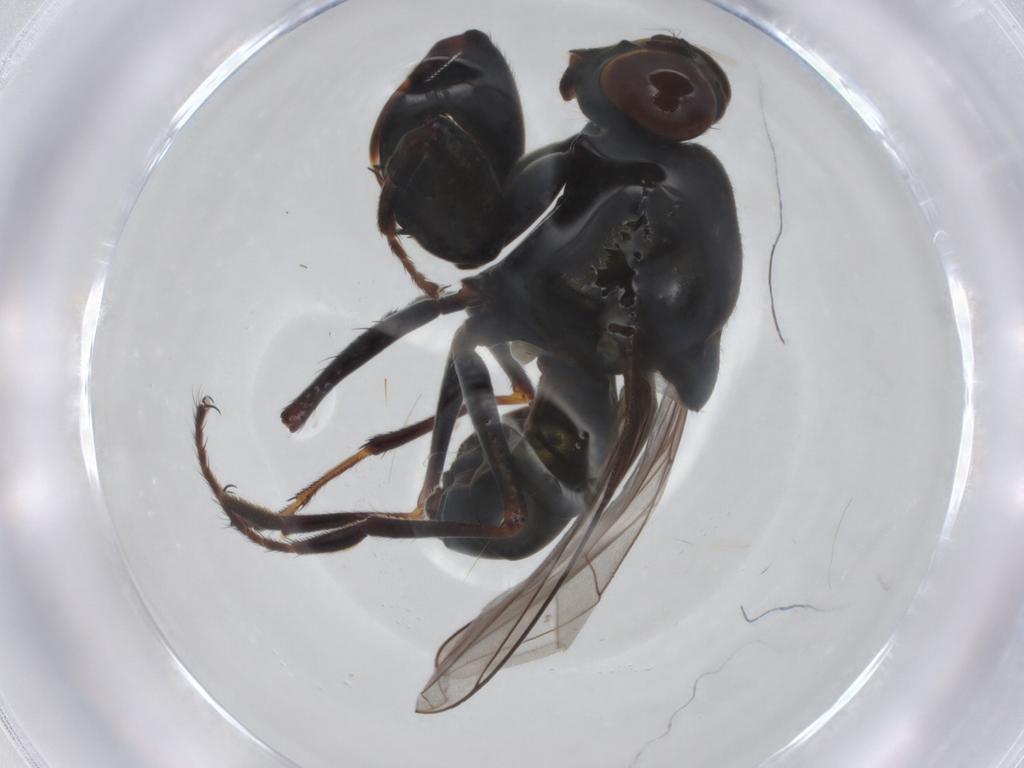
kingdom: Animalia
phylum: Arthropoda
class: Insecta
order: Diptera
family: Ephydridae
